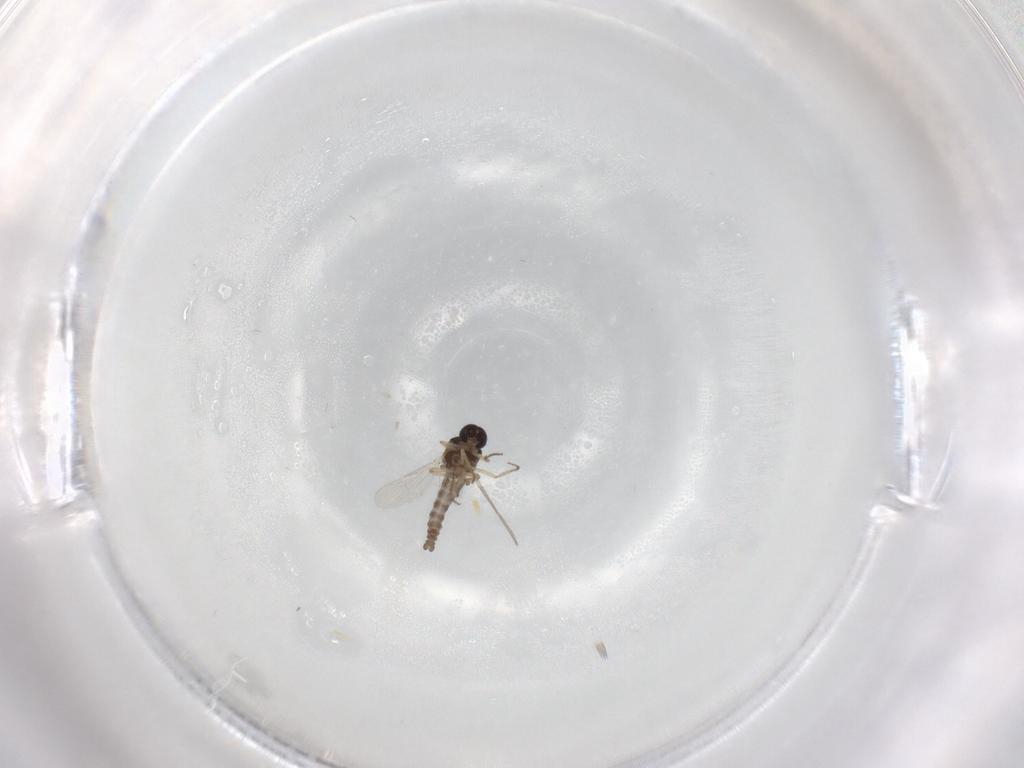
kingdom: Animalia
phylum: Arthropoda
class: Insecta
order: Diptera
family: Ceratopogonidae
